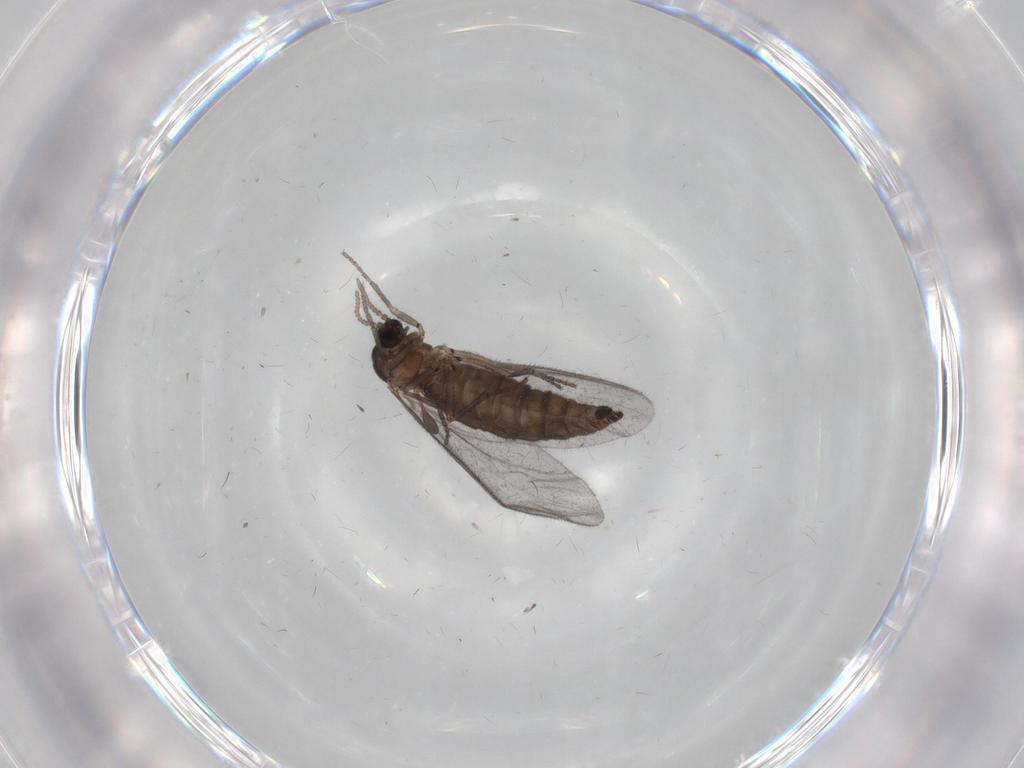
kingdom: Animalia
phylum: Arthropoda
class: Insecta
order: Diptera
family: Sciaridae
